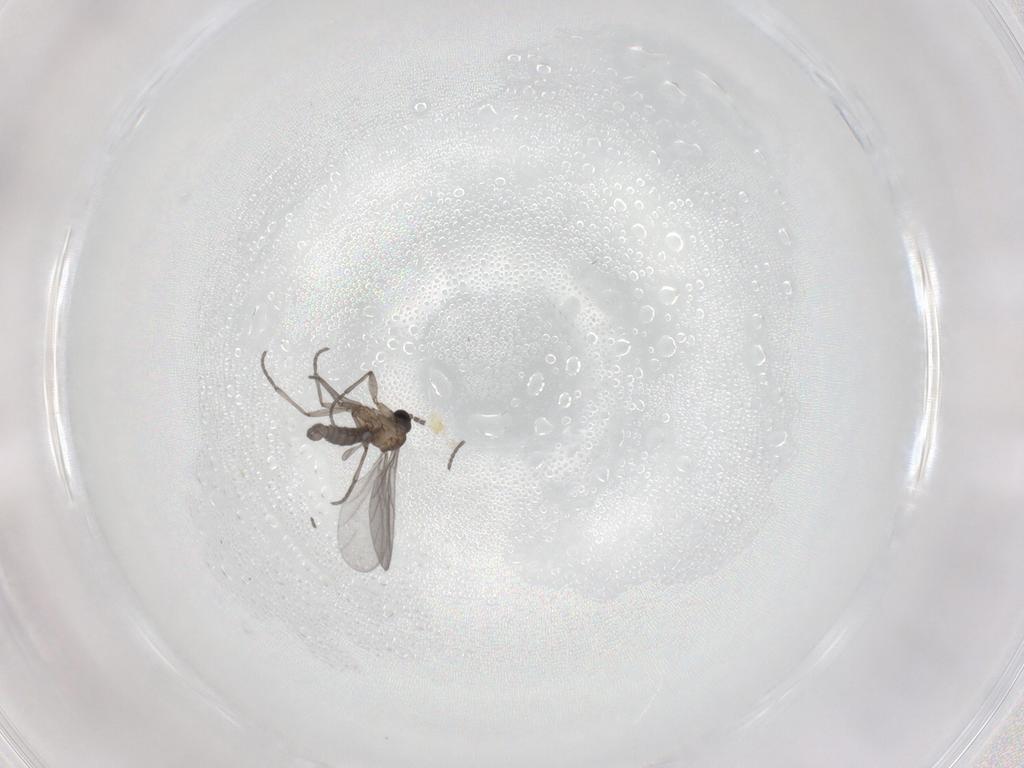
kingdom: Animalia
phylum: Arthropoda
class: Insecta
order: Diptera
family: Sciaridae
